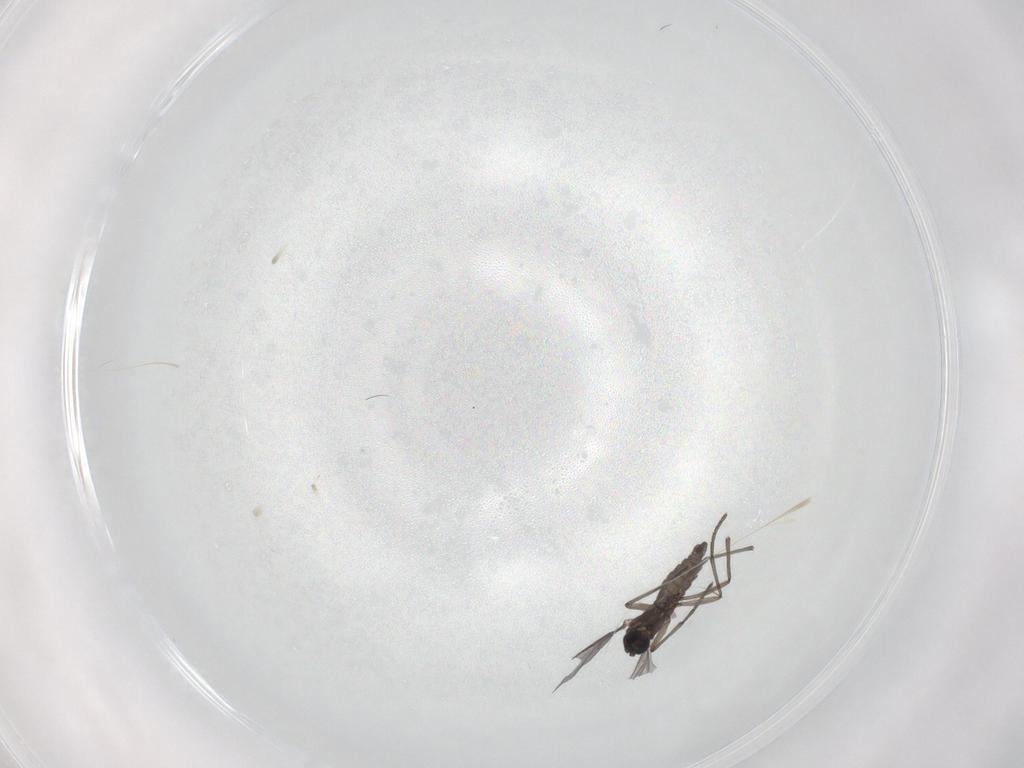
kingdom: Animalia
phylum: Arthropoda
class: Insecta
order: Diptera
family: Sciaridae
